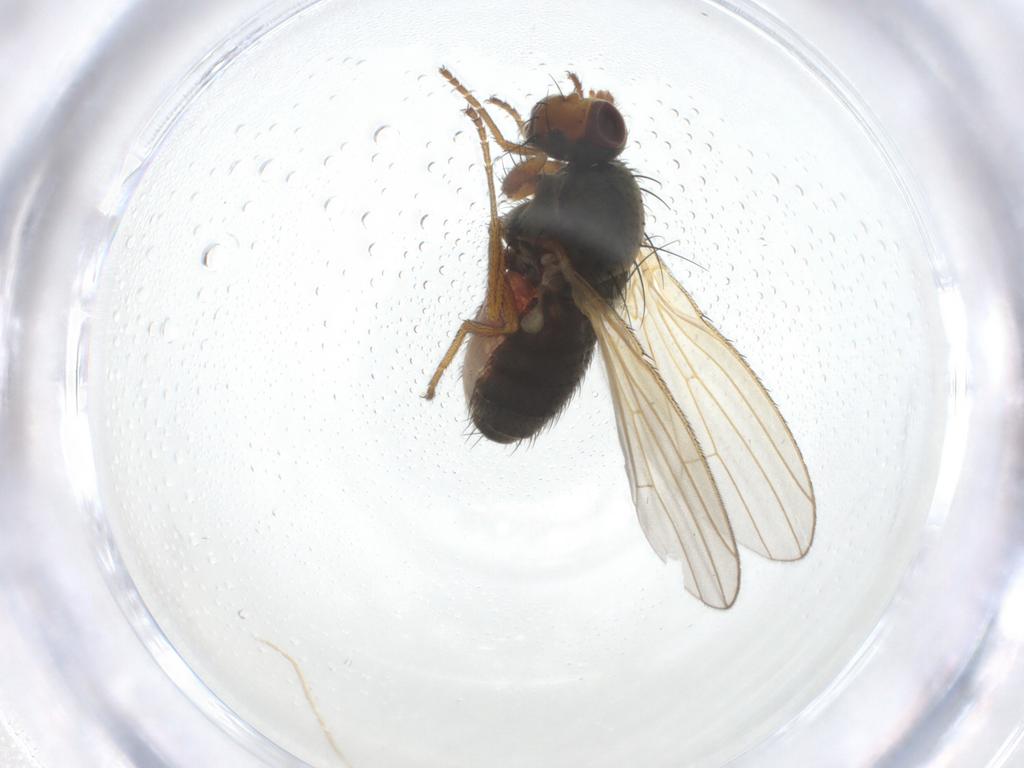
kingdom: Animalia
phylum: Arthropoda
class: Insecta
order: Diptera
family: Heleomyzidae
